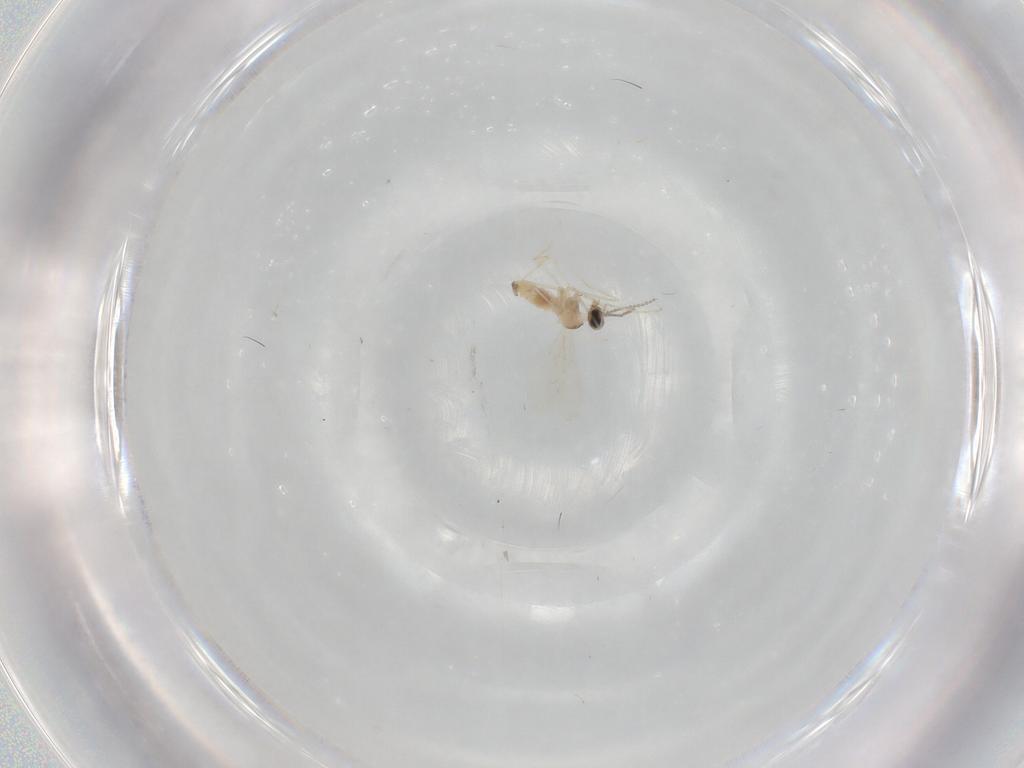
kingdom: Animalia
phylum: Arthropoda
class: Insecta
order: Diptera
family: Cecidomyiidae
